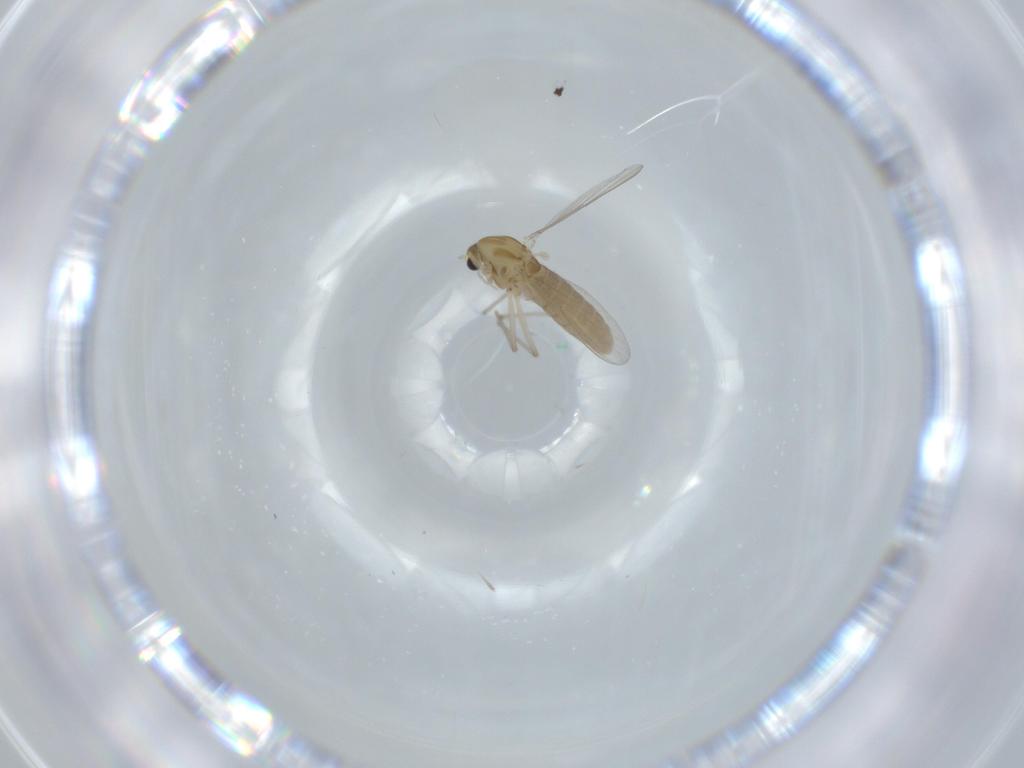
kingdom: Animalia
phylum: Arthropoda
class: Insecta
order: Diptera
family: Chironomidae
